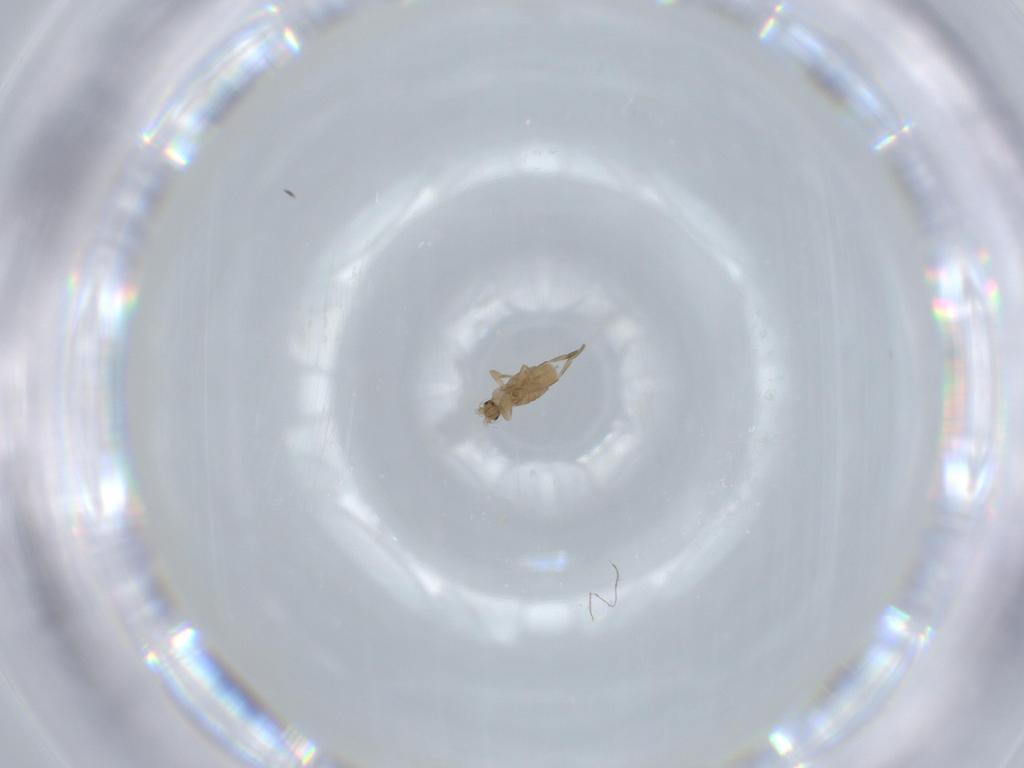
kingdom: Animalia
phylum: Arthropoda
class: Insecta
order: Diptera
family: Phoridae
